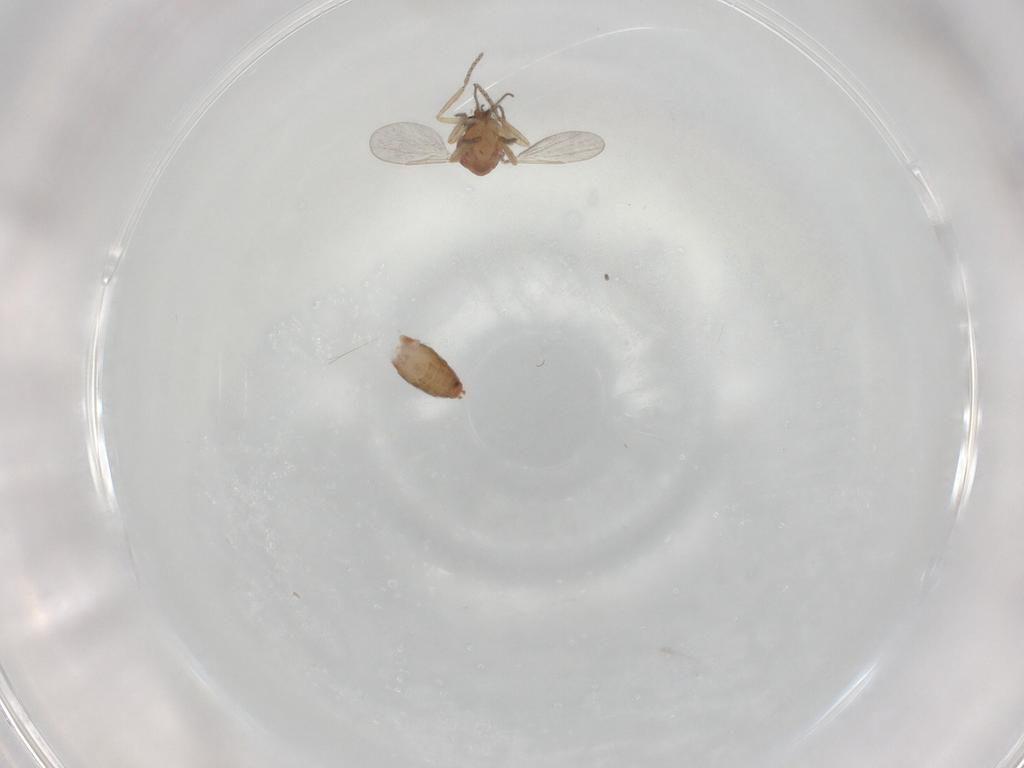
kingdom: Animalia
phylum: Arthropoda
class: Insecta
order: Diptera
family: Ceratopogonidae
